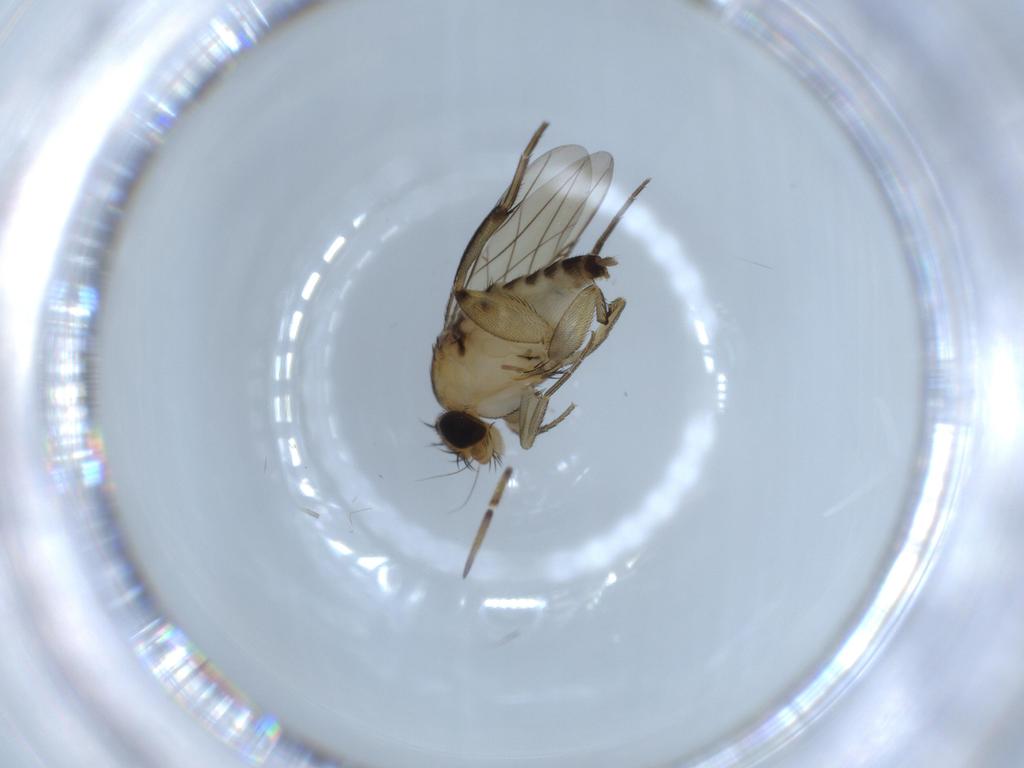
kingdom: Animalia
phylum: Arthropoda
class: Insecta
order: Diptera
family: Phoridae
